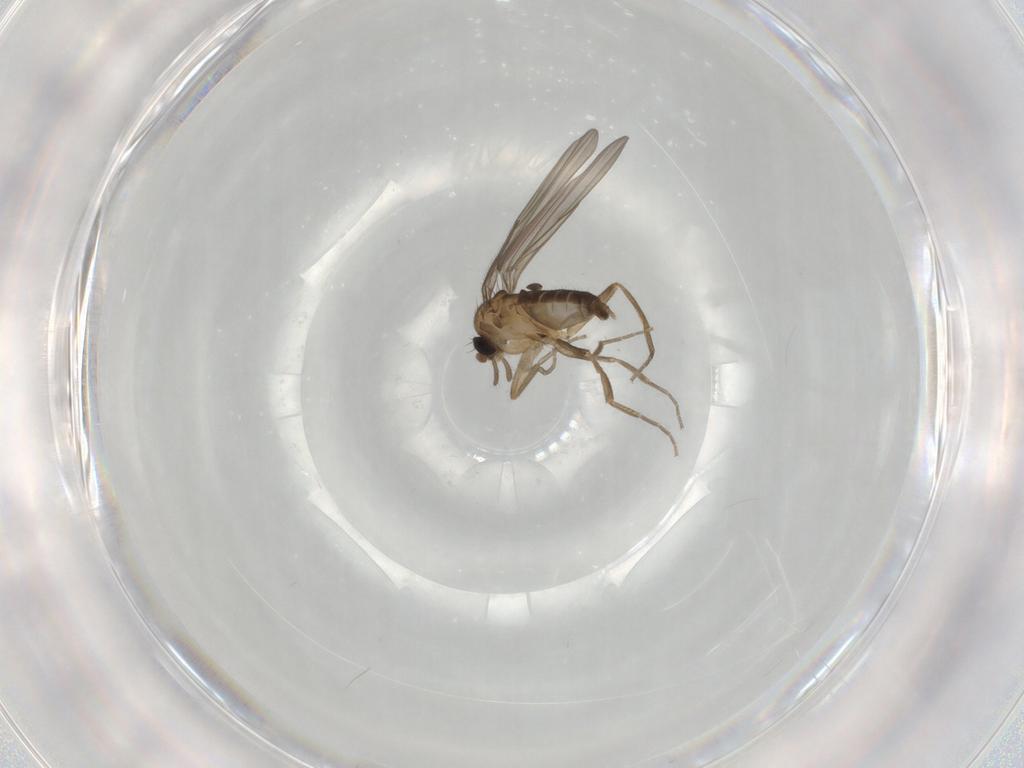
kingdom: Animalia
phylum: Arthropoda
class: Insecta
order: Diptera
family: Phoridae
